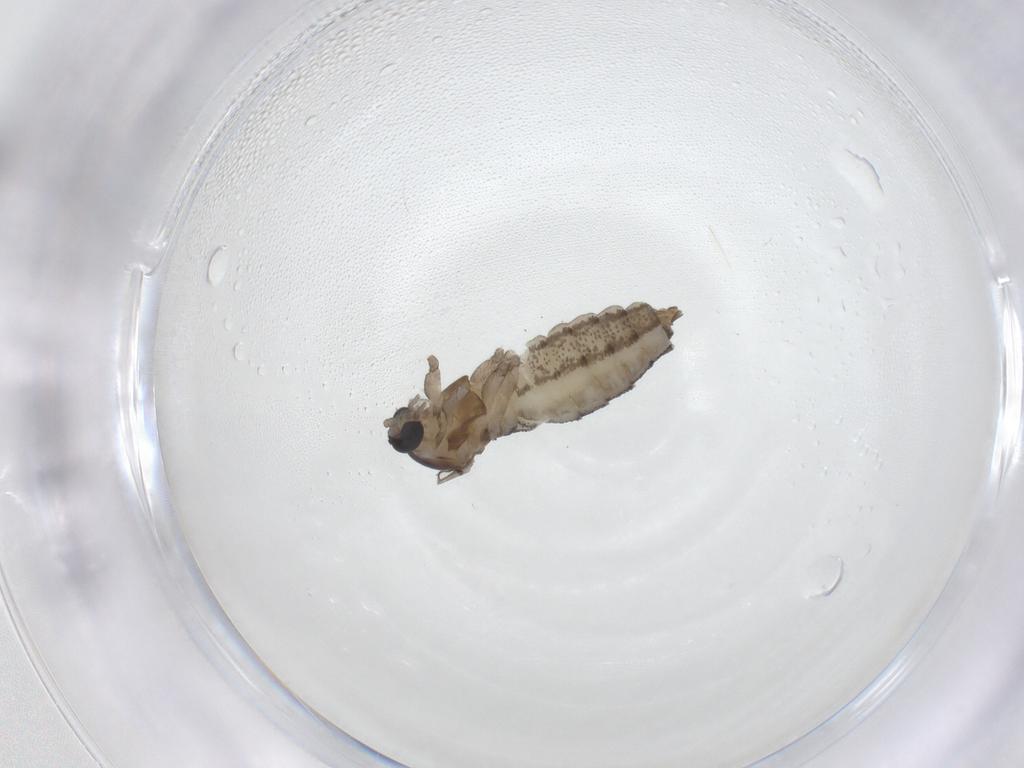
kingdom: Animalia
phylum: Arthropoda
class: Insecta
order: Diptera
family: Cecidomyiidae
